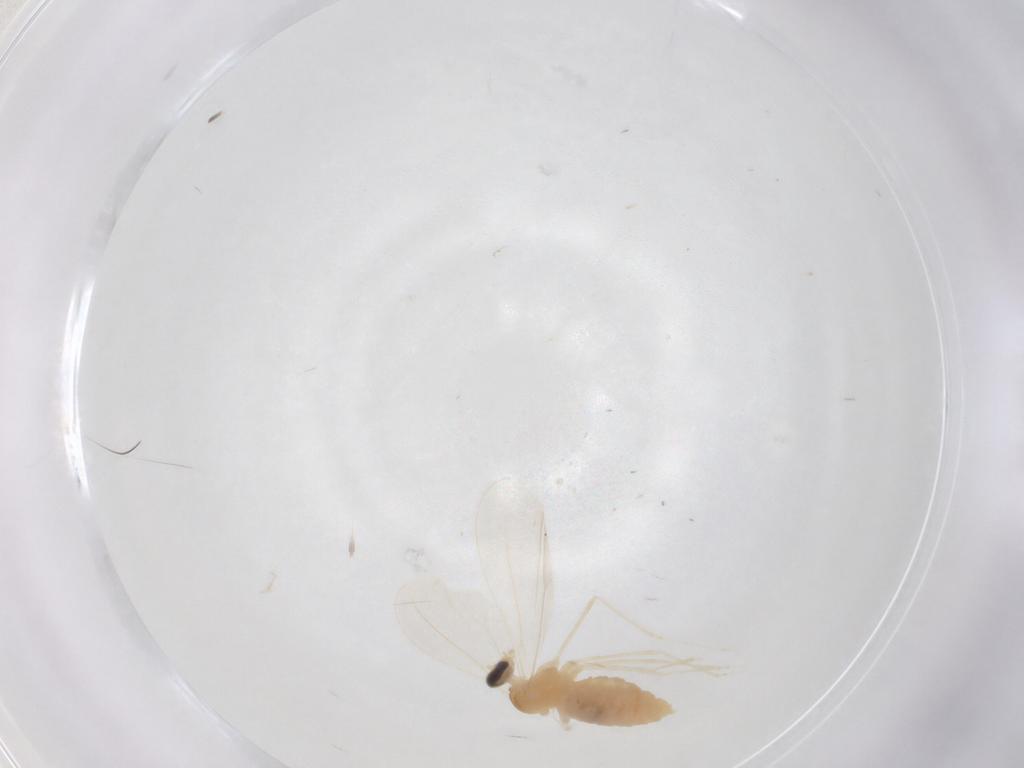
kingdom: Animalia
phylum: Arthropoda
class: Insecta
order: Diptera
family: Cecidomyiidae
